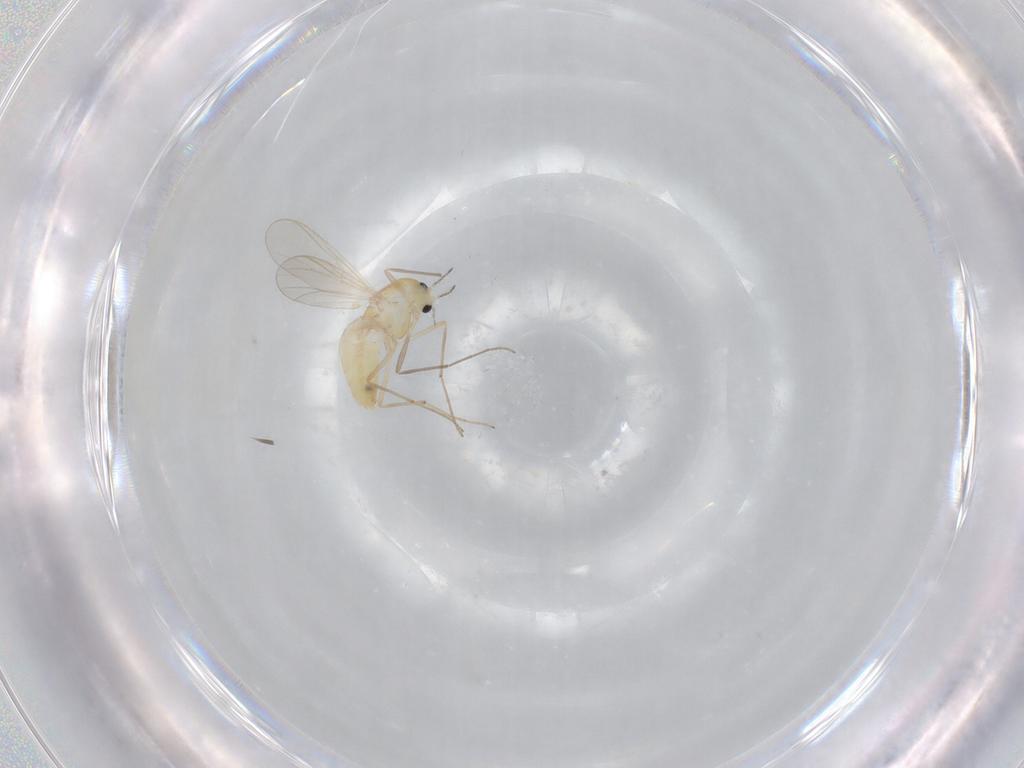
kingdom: Animalia
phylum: Arthropoda
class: Insecta
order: Diptera
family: Chironomidae
